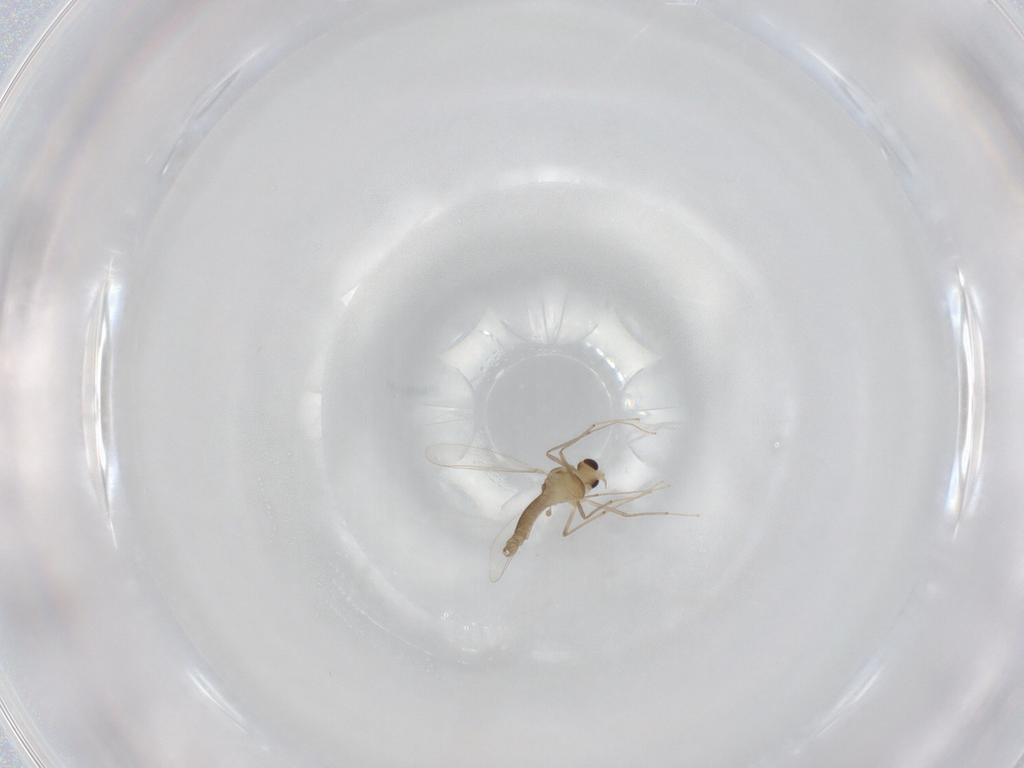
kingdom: Animalia
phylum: Arthropoda
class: Insecta
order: Diptera
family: Chironomidae
